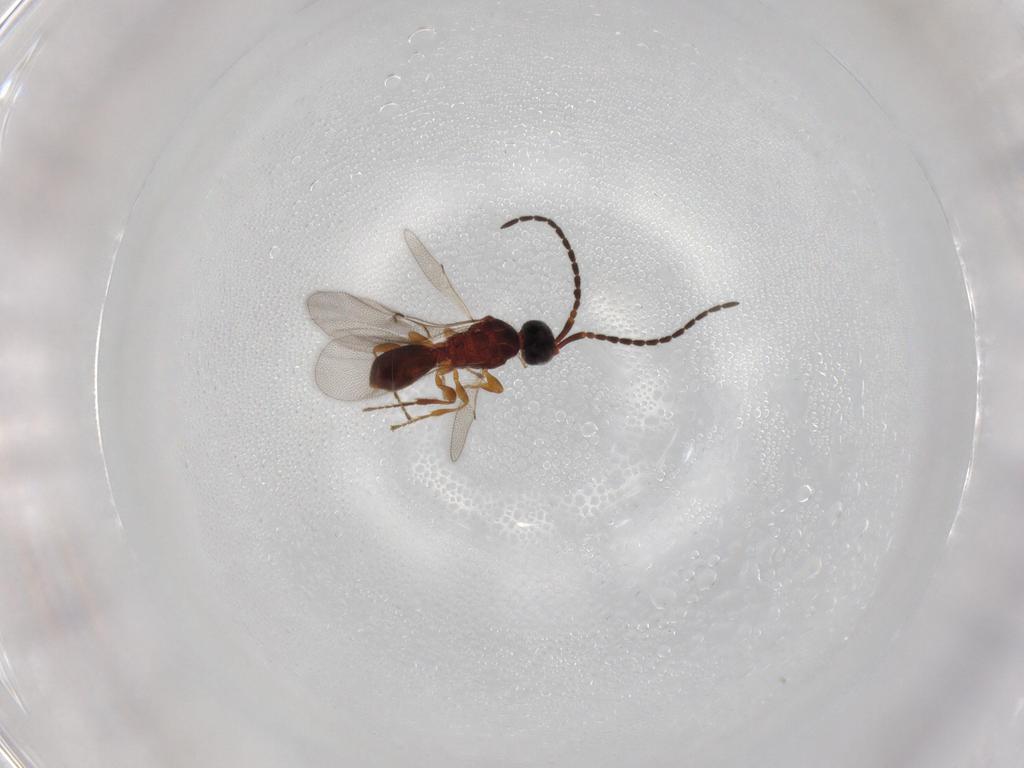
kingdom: Animalia
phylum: Arthropoda
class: Insecta
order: Hymenoptera
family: Diapriidae
